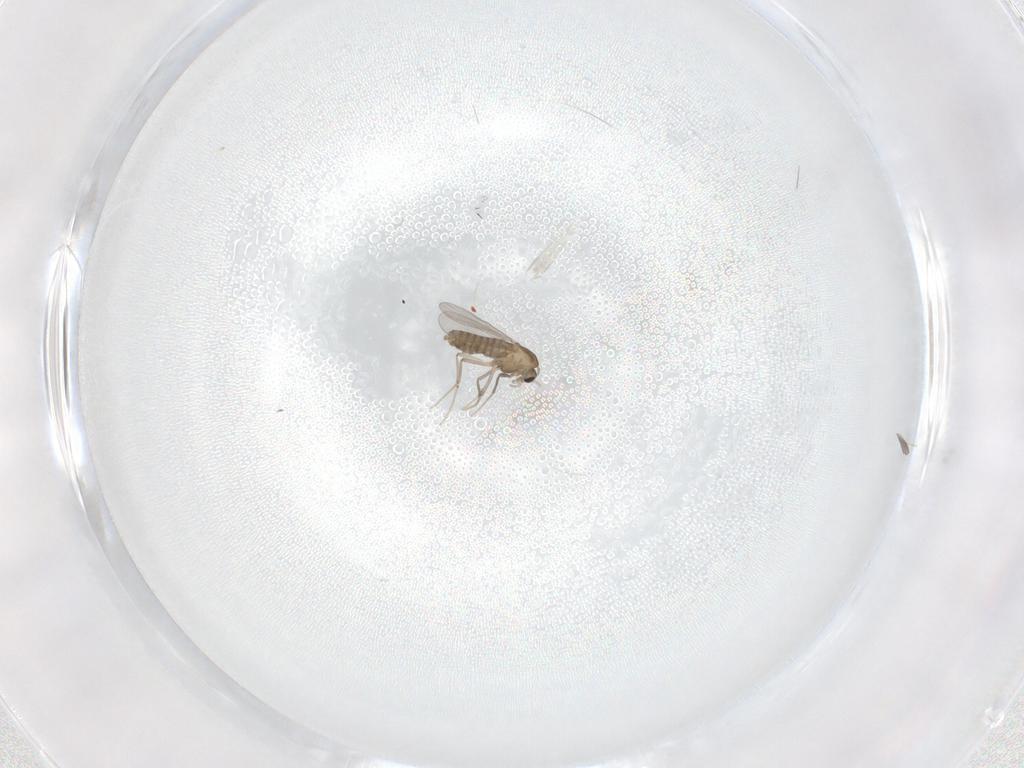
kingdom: Animalia
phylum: Arthropoda
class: Insecta
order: Diptera
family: Chironomidae
